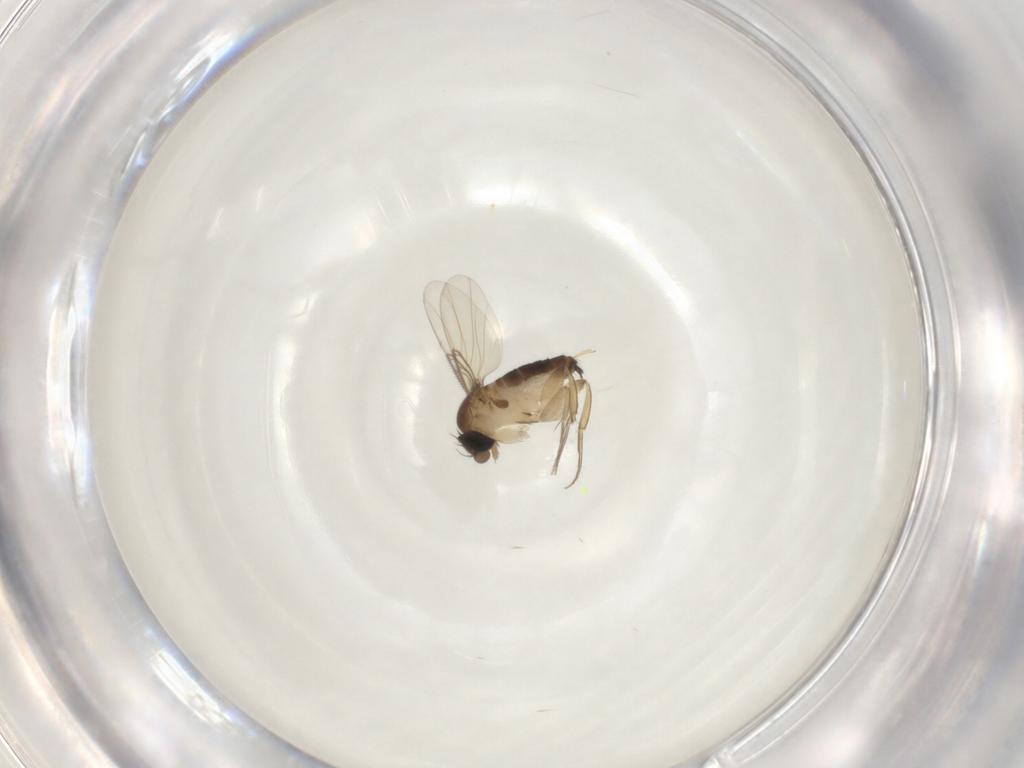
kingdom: Animalia
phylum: Arthropoda
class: Insecta
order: Diptera
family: Phoridae
